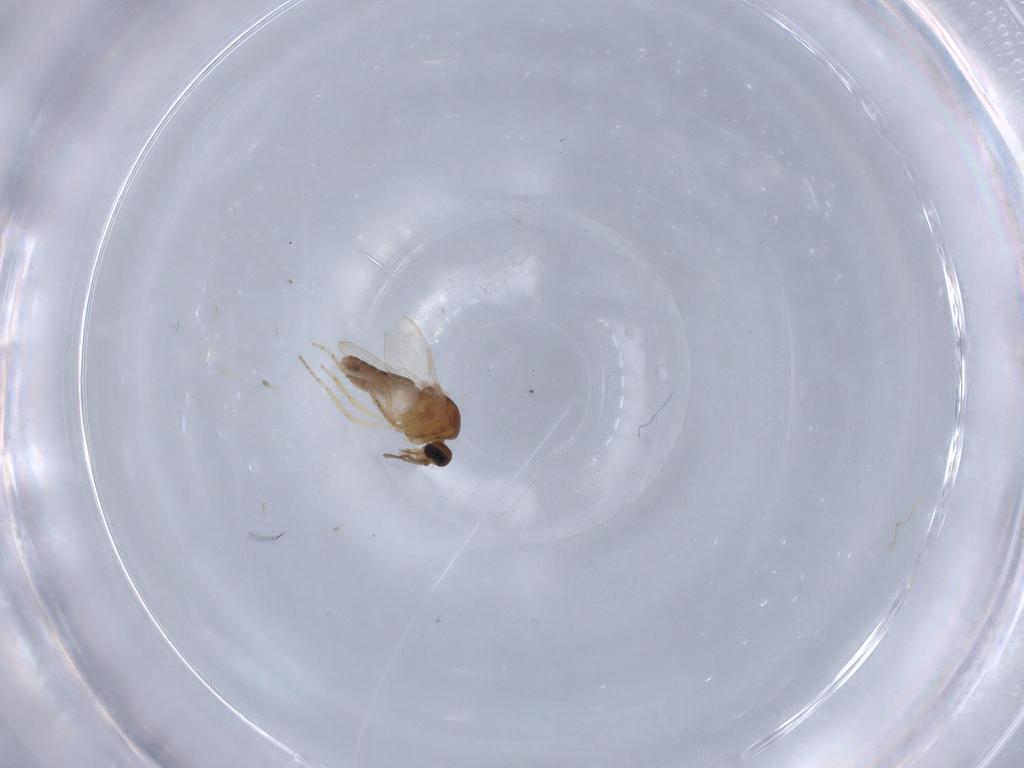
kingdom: Animalia
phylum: Arthropoda
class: Insecta
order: Diptera
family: Ceratopogonidae
